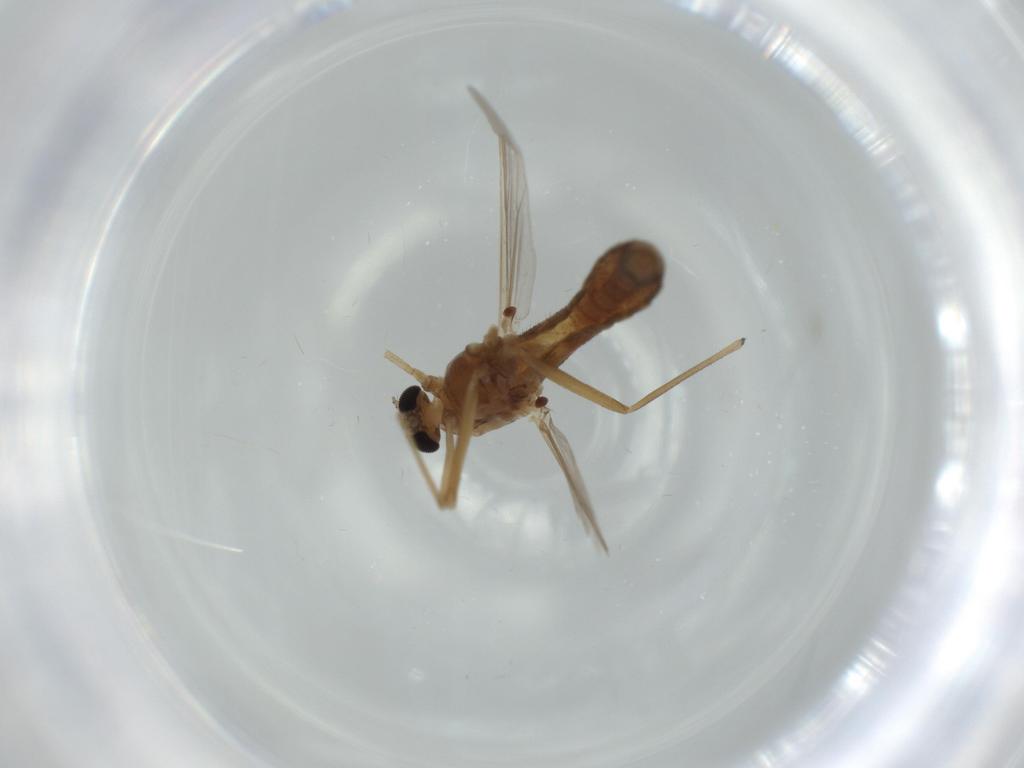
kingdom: Animalia
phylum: Arthropoda
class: Insecta
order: Diptera
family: Chironomidae
